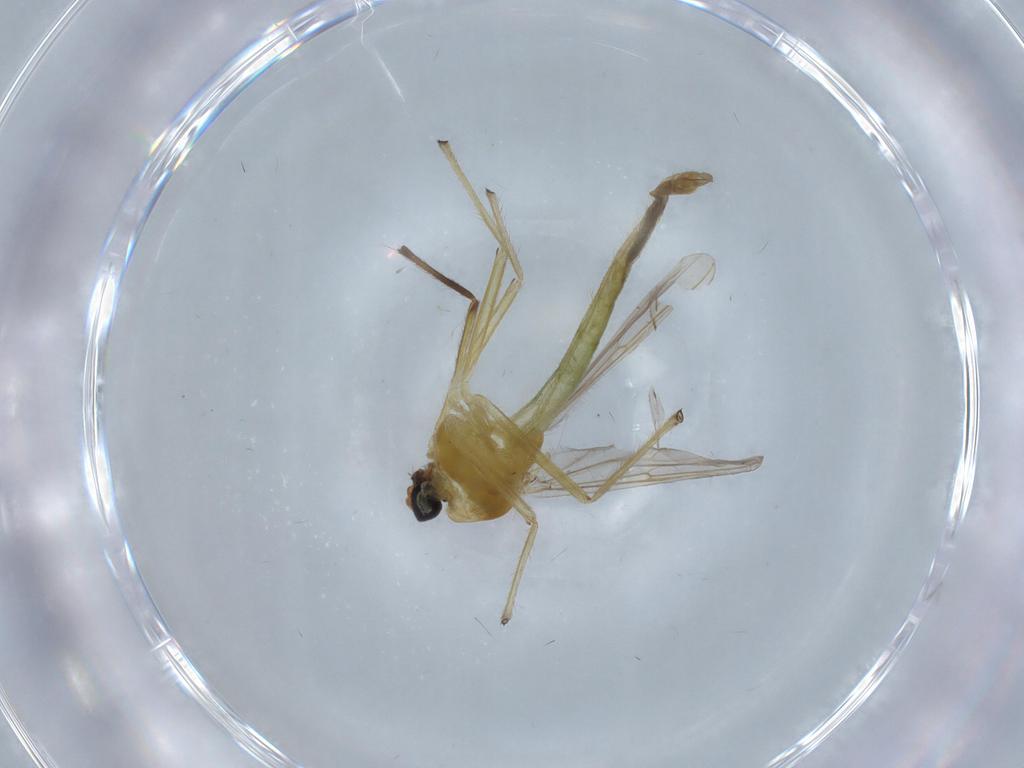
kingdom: Animalia
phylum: Arthropoda
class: Insecta
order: Diptera
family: Chironomidae
